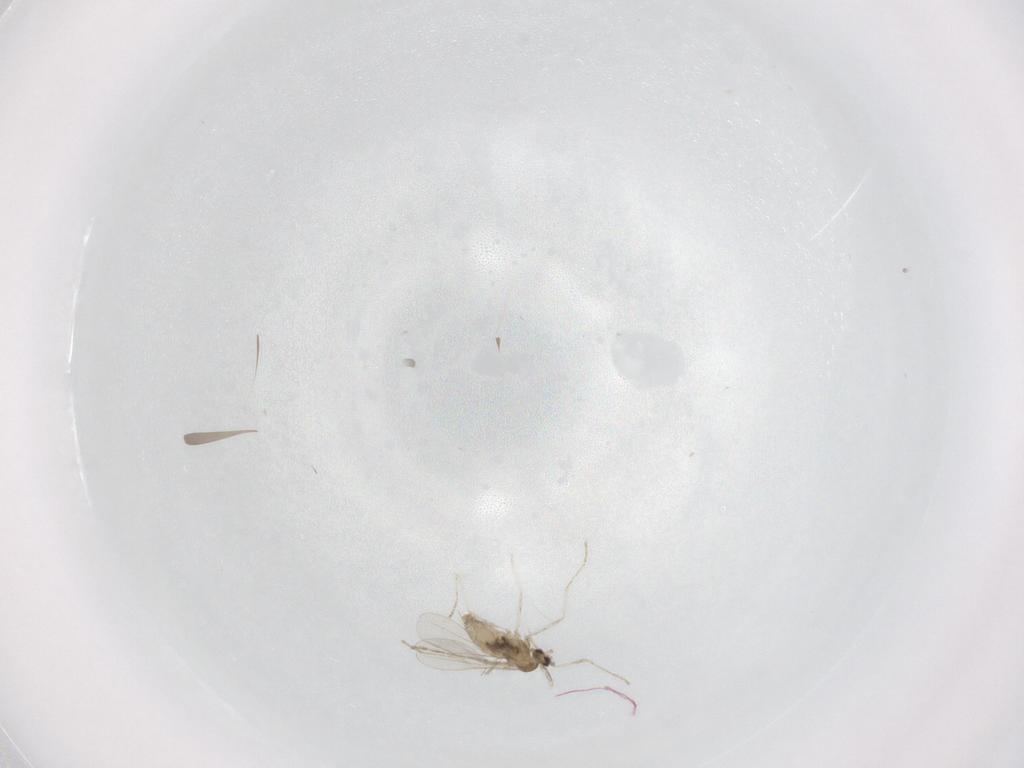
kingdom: Animalia
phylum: Arthropoda
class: Insecta
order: Diptera
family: Cecidomyiidae
